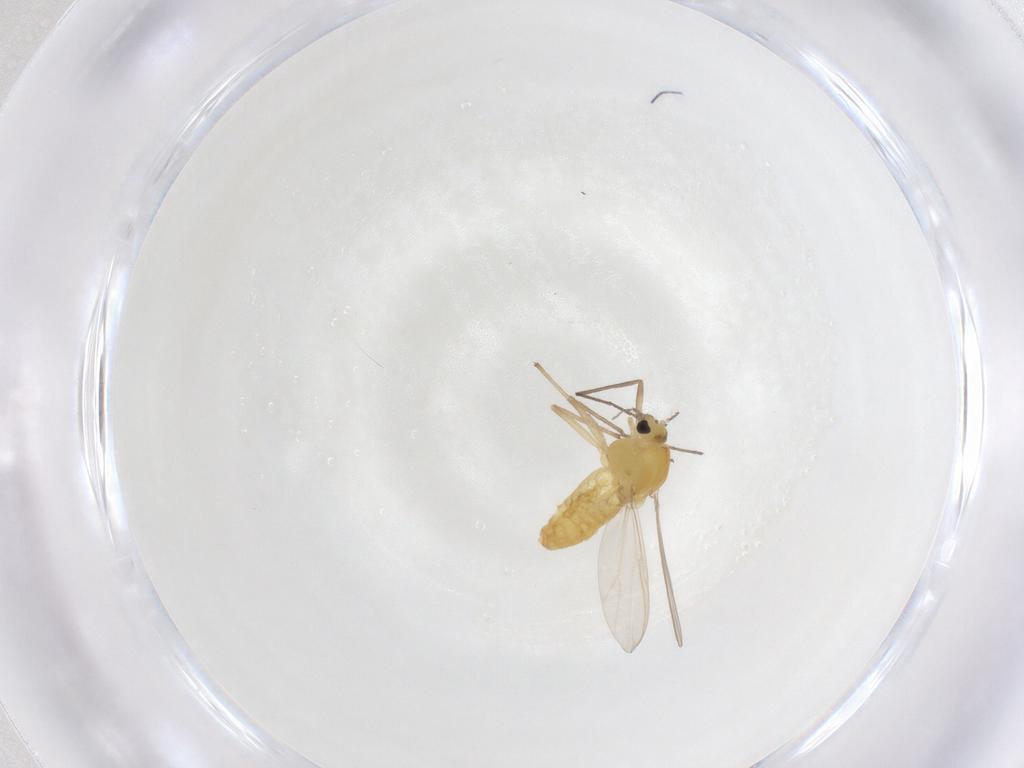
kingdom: Animalia
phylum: Arthropoda
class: Insecta
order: Diptera
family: Chironomidae
